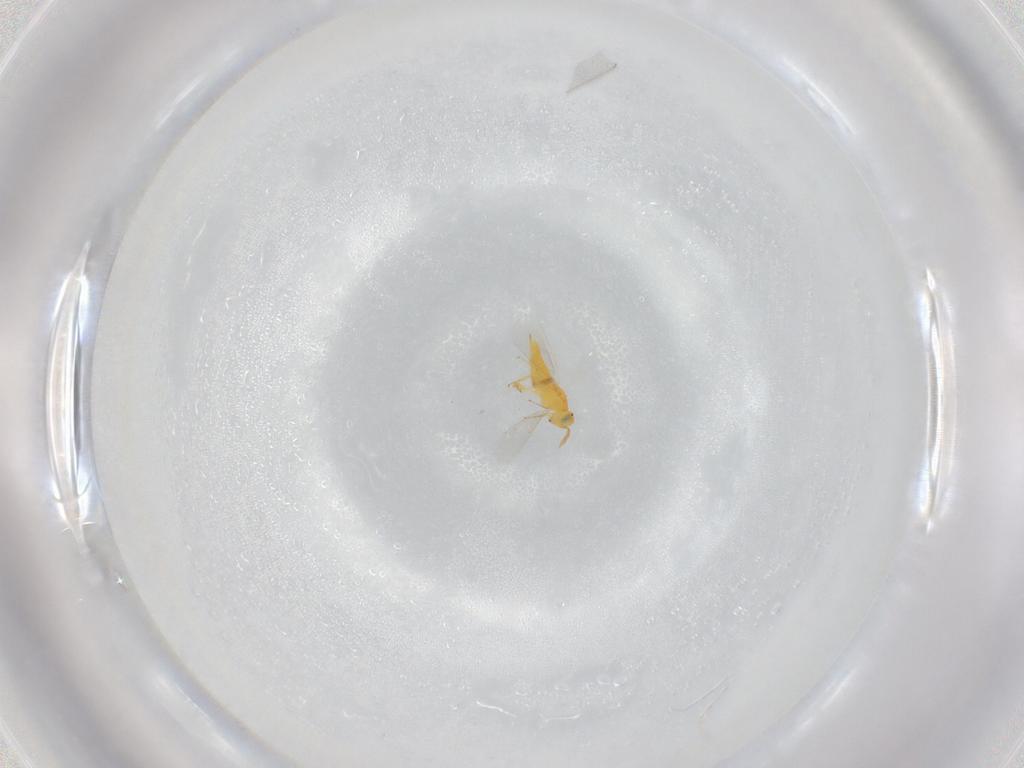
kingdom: Animalia
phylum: Arthropoda
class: Insecta
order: Hymenoptera
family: Aphelinidae
